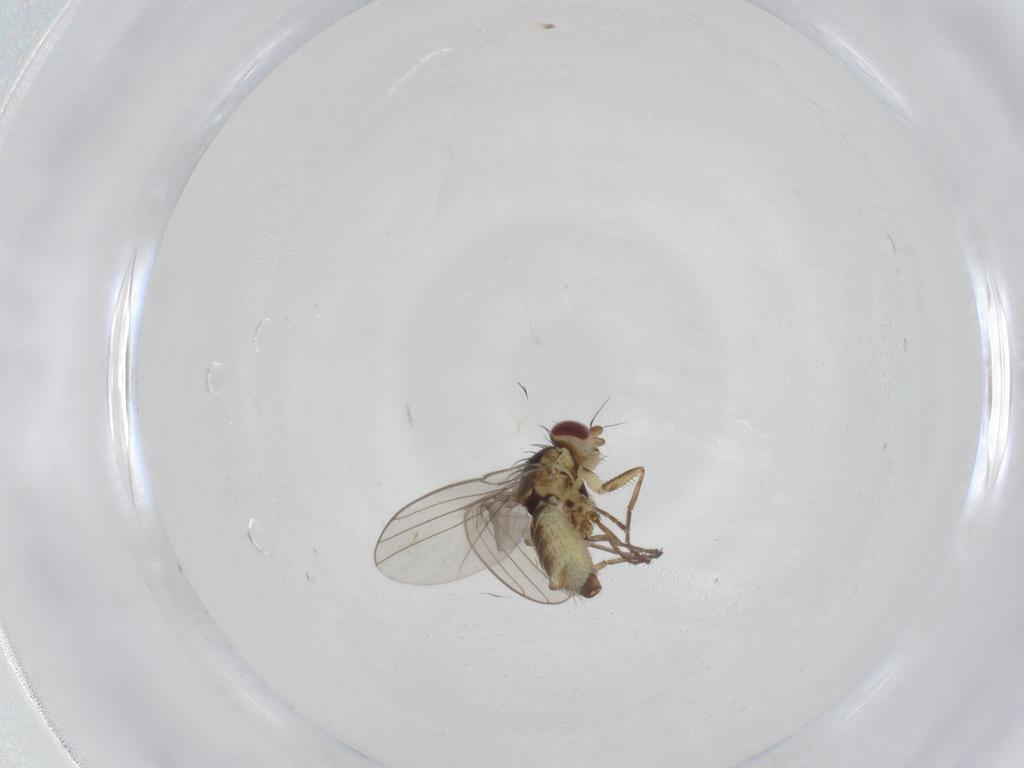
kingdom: Animalia
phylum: Arthropoda
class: Insecta
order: Diptera
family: Agromyzidae
